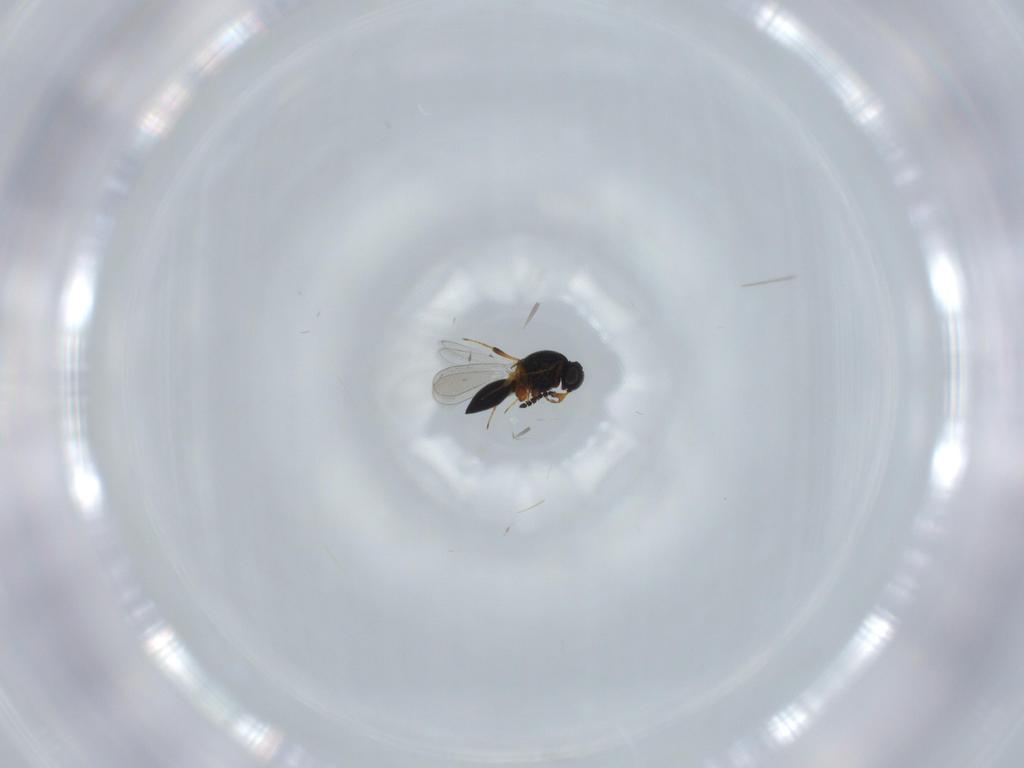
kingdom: Animalia
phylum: Arthropoda
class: Insecta
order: Hymenoptera
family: Platygastridae
